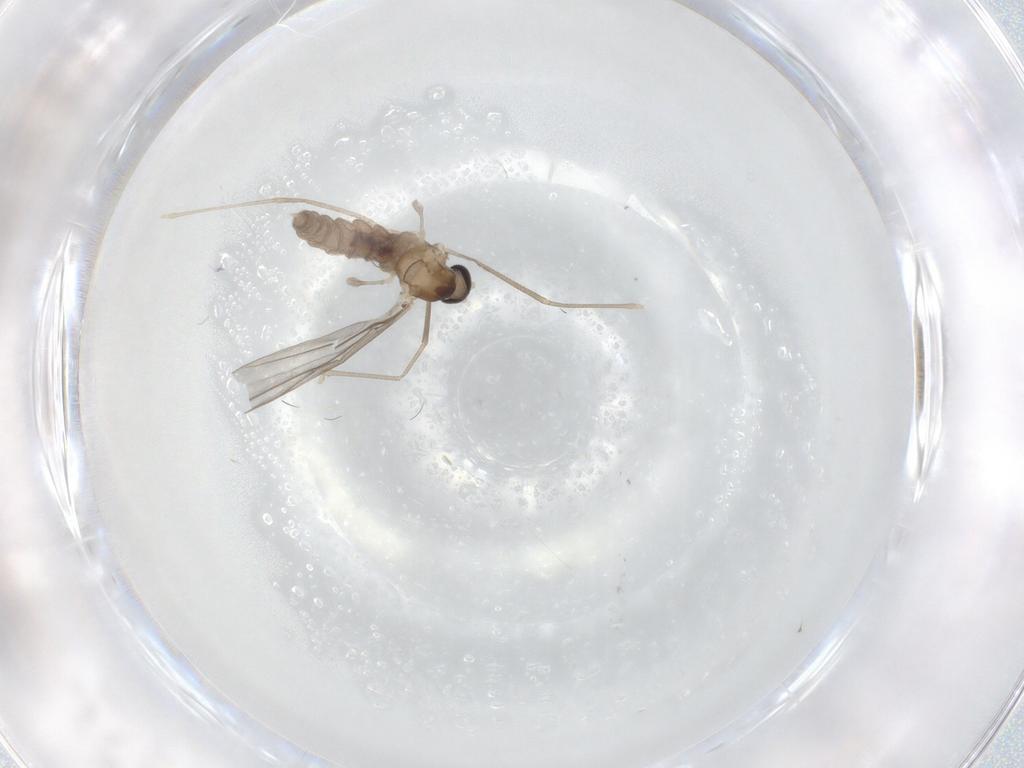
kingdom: Animalia
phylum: Arthropoda
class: Insecta
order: Diptera
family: Cecidomyiidae
